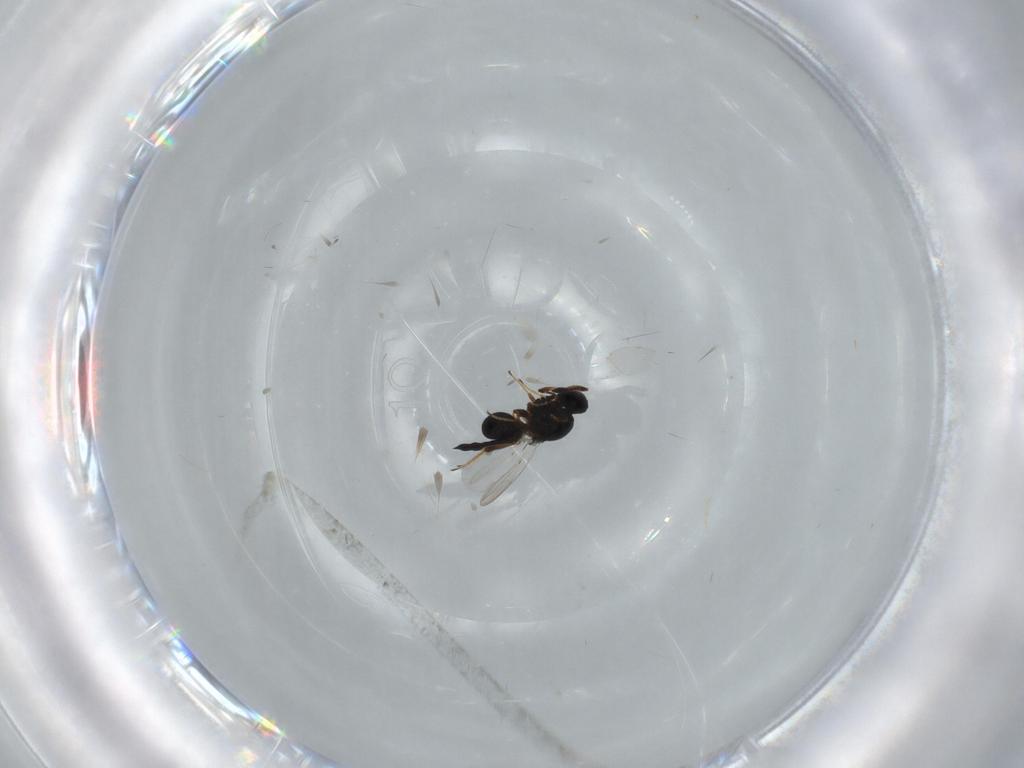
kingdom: Animalia
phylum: Arthropoda
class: Insecta
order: Hymenoptera
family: Platygastridae
